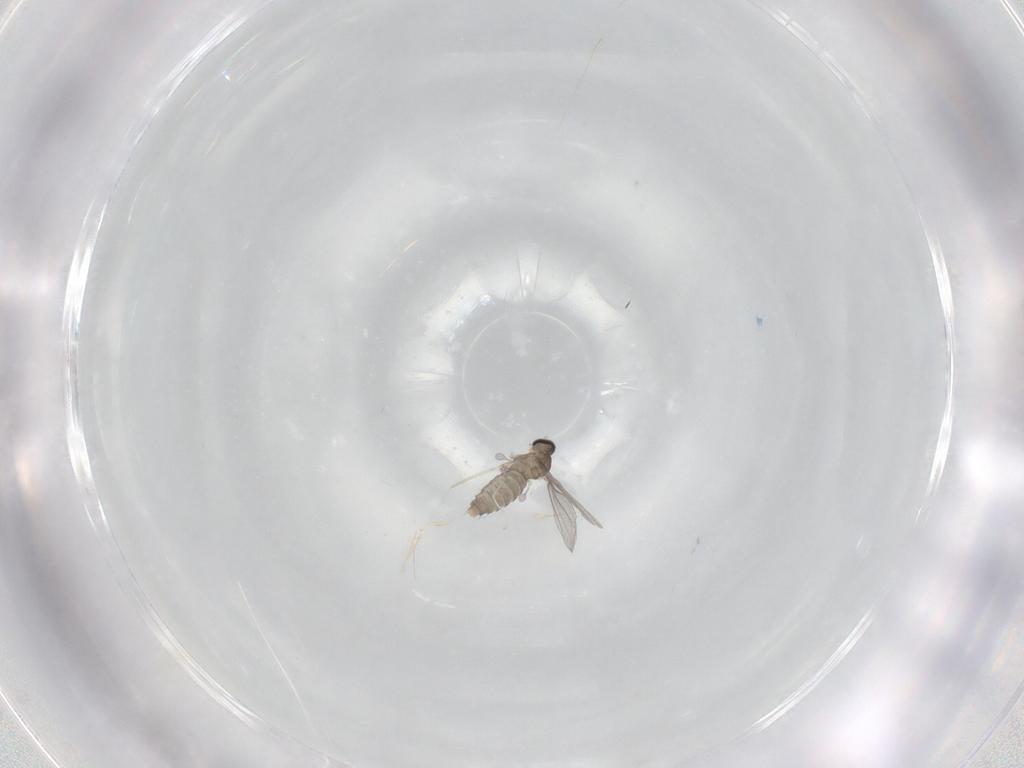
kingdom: Animalia
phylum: Arthropoda
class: Insecta
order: Diptera
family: Cecidomyiidae
